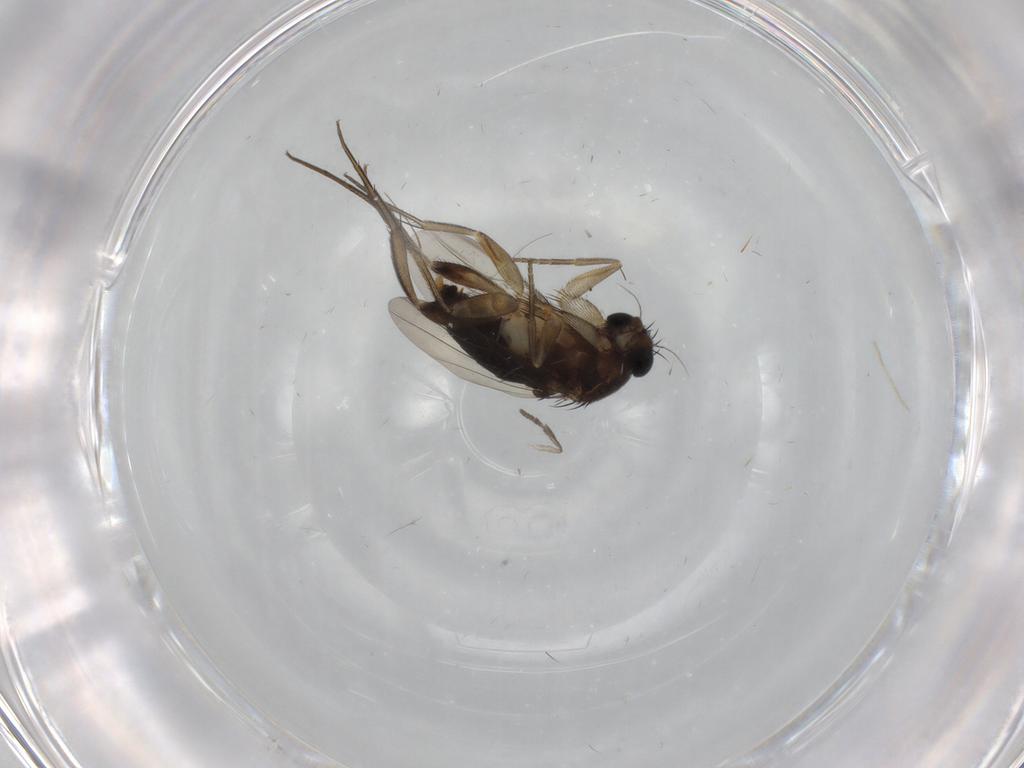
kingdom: Animalia
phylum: Arthropoda
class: Insecta
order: Diptera
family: Phoridae
